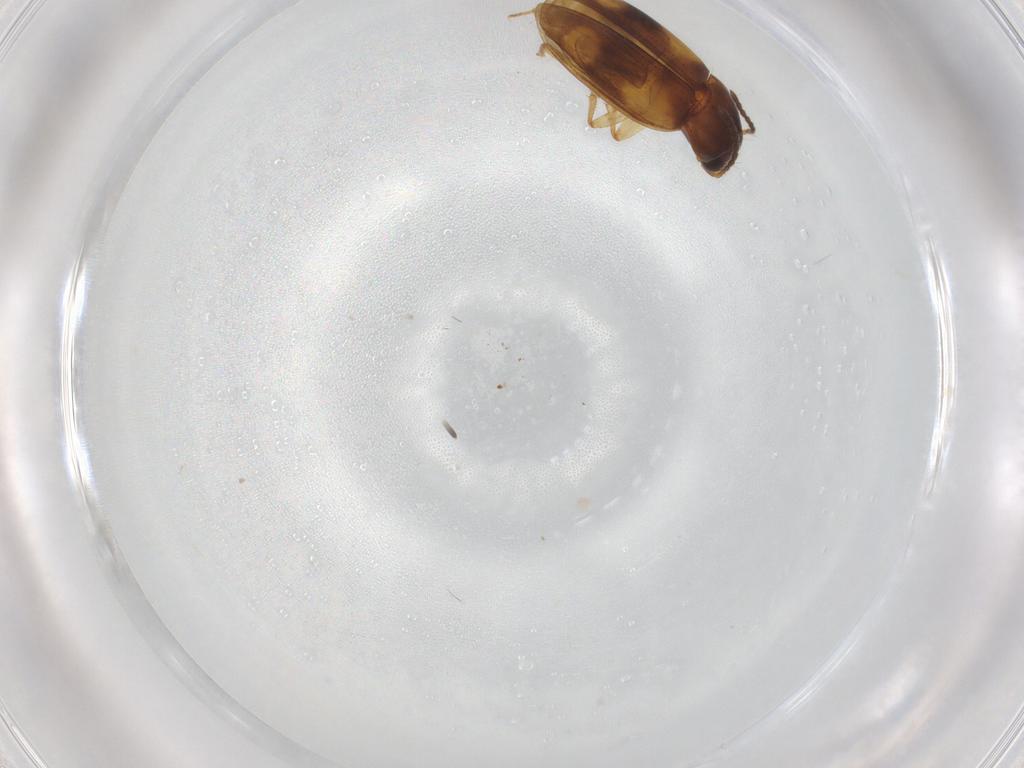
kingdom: Animalia
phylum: Arthropoda
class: Insecta
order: Coleoptera
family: Carabidae
